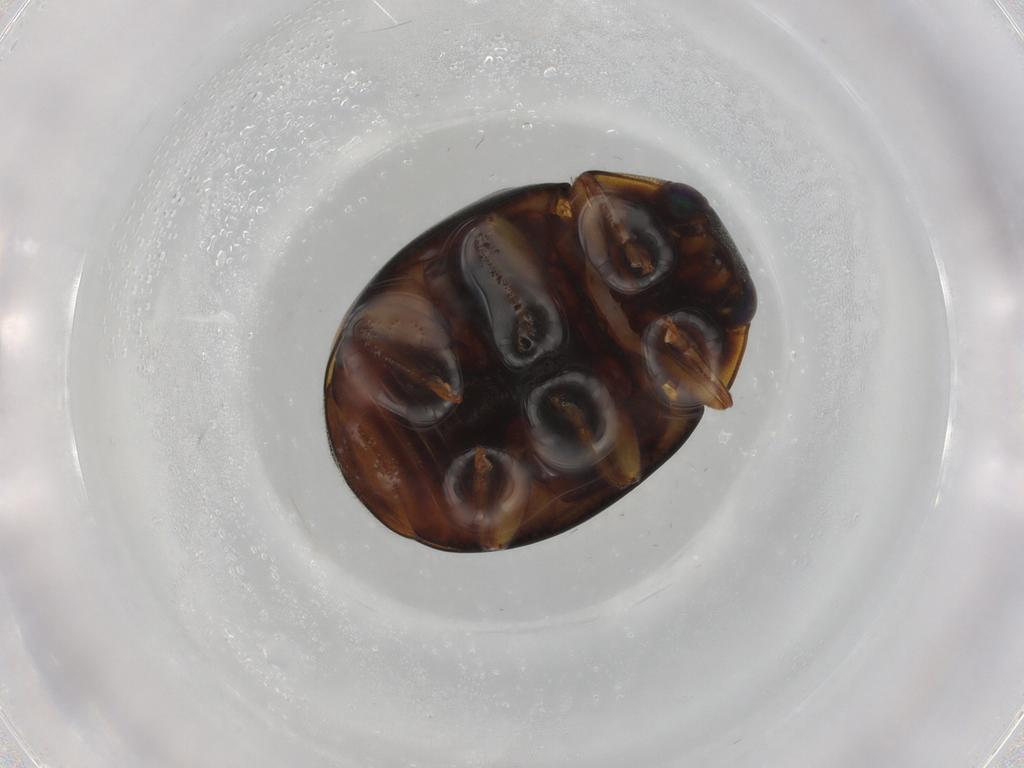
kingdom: Animalia
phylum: Arthropoda
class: Insecta
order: Coleoptera
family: Coccinellidae
